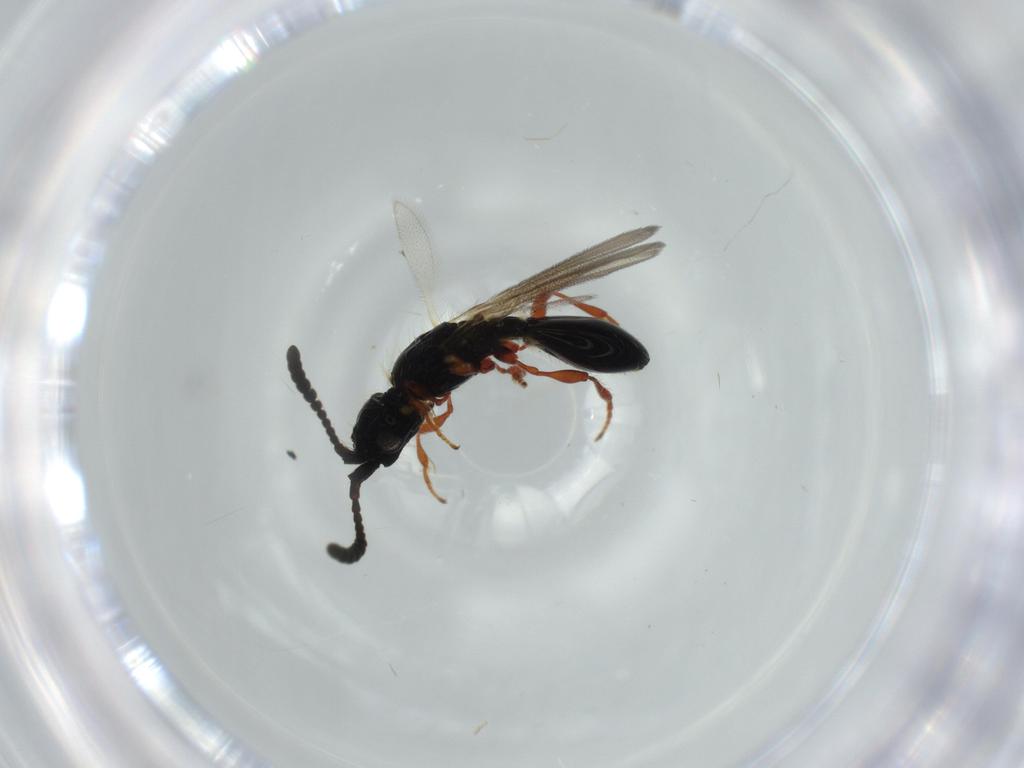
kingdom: Animalia
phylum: Arthropoda
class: Insecta
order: Hymenoptera
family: Diapriidae
